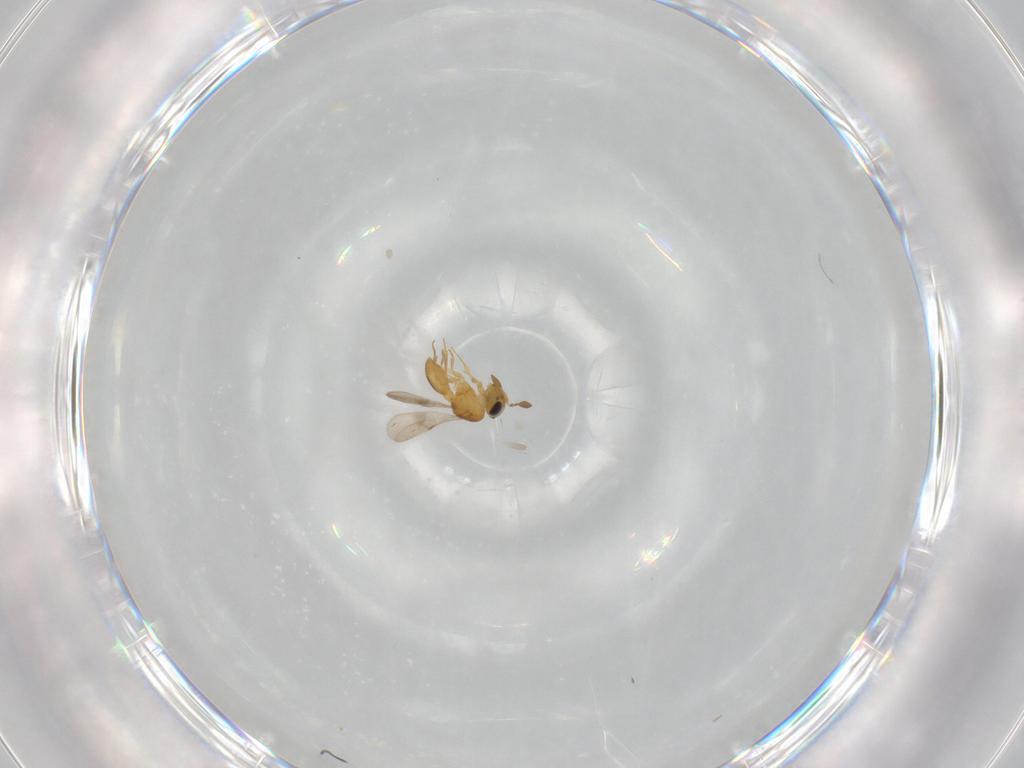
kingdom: Animalia
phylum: Arthropoda
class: Insecta
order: Hymenoptera
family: Scelionidae
